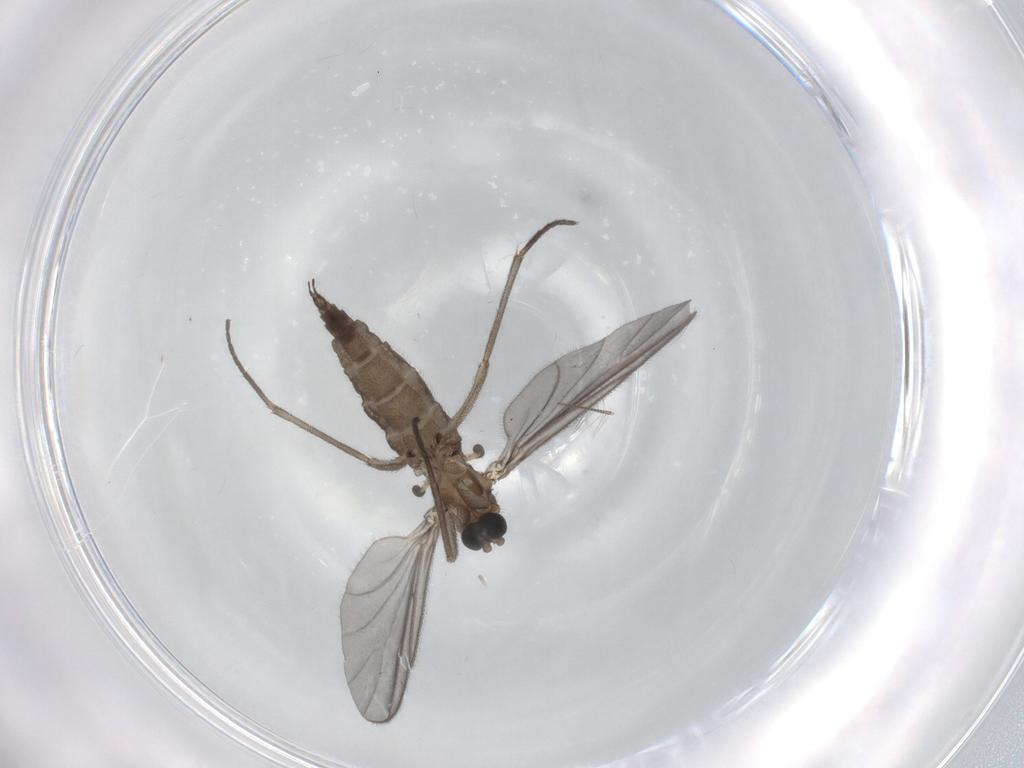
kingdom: Animalia
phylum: Arthropoda
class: Insecta
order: Diptera
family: Sciaridae
